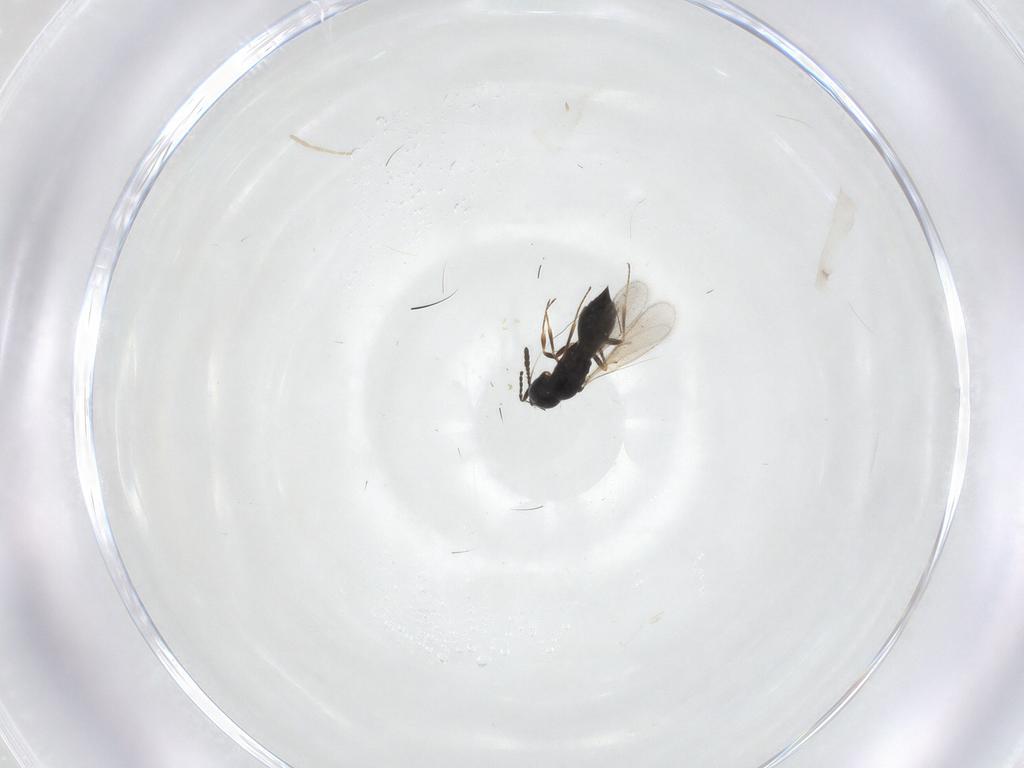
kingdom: Animalia
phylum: Arthropoda
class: Insecta
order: Hymenoptera
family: Scelionidae
